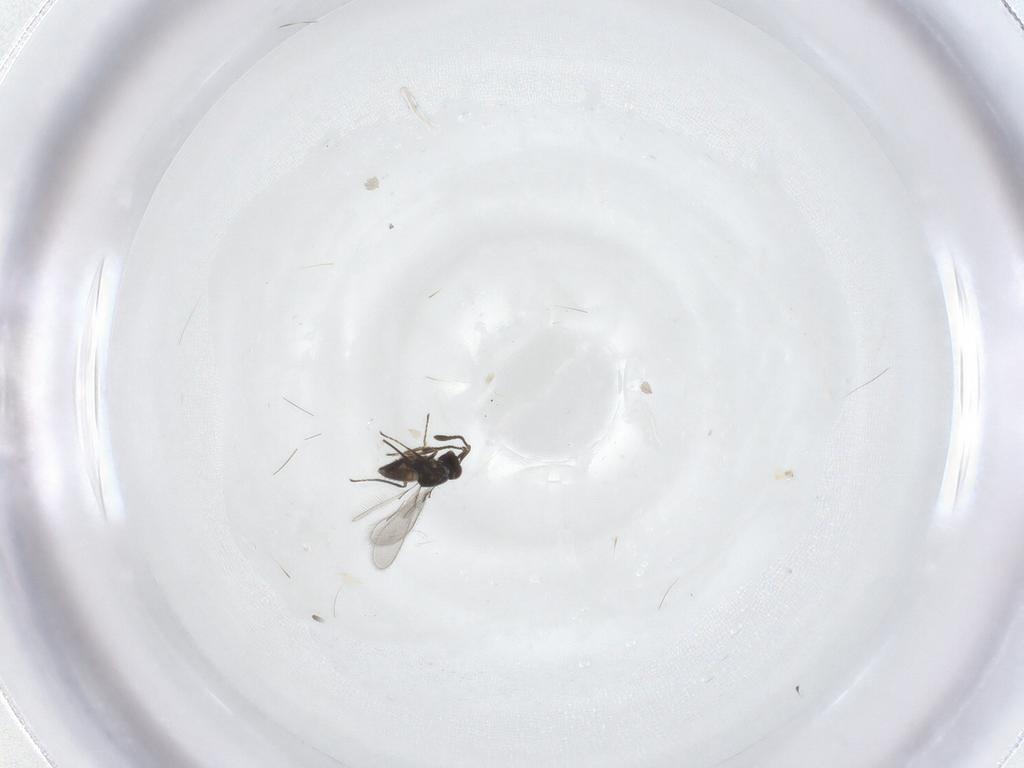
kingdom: Animalia
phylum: Arthropoda
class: Insecta
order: Hymenoptera
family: Mymaridae
